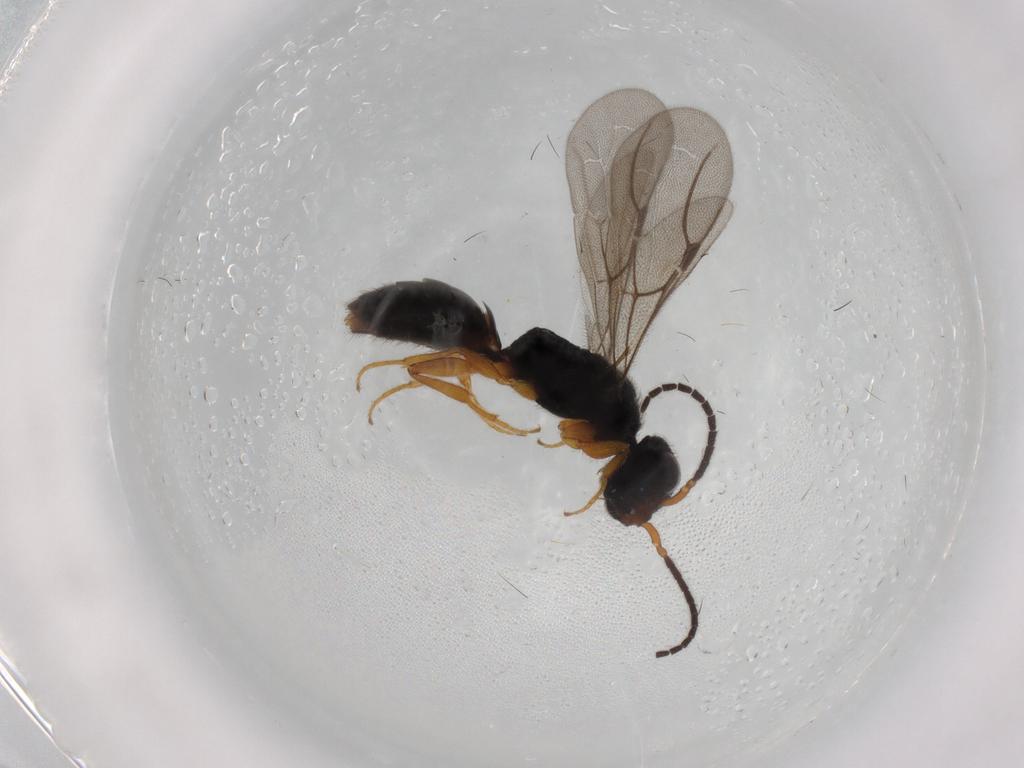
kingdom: Animalia
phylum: Arthropoda
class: Insecta
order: Hymenoptera
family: Bethylidae
